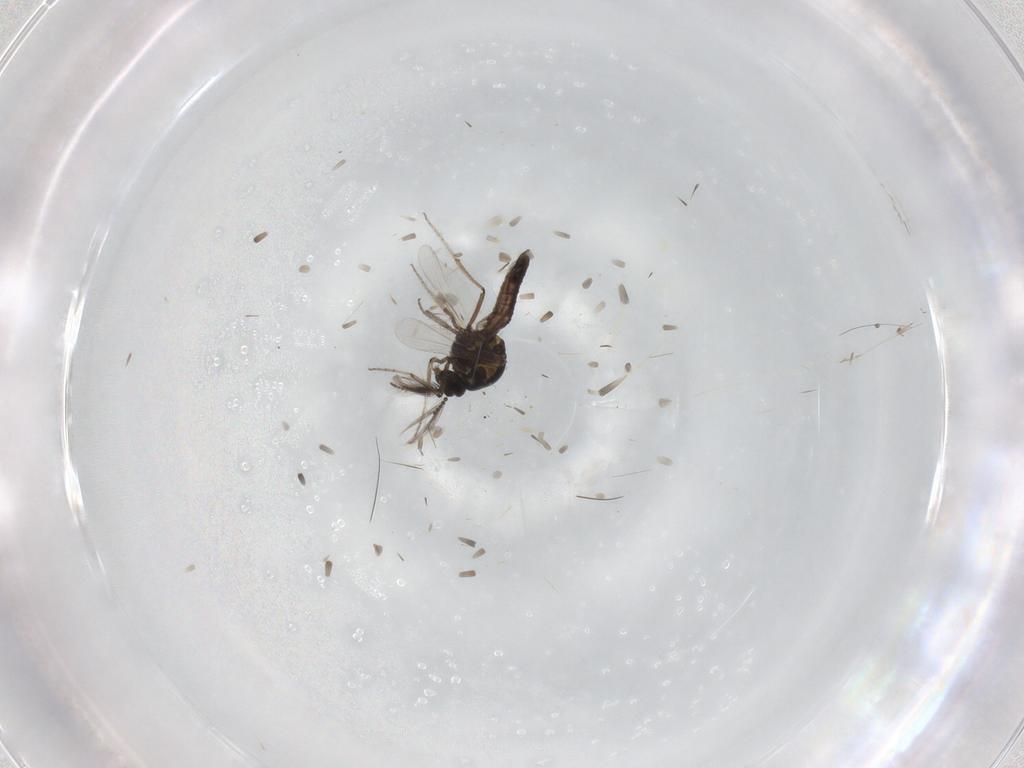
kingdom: Animalia
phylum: Arthropoda
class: Insecta
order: Diptera
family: Ceratopogonidae
